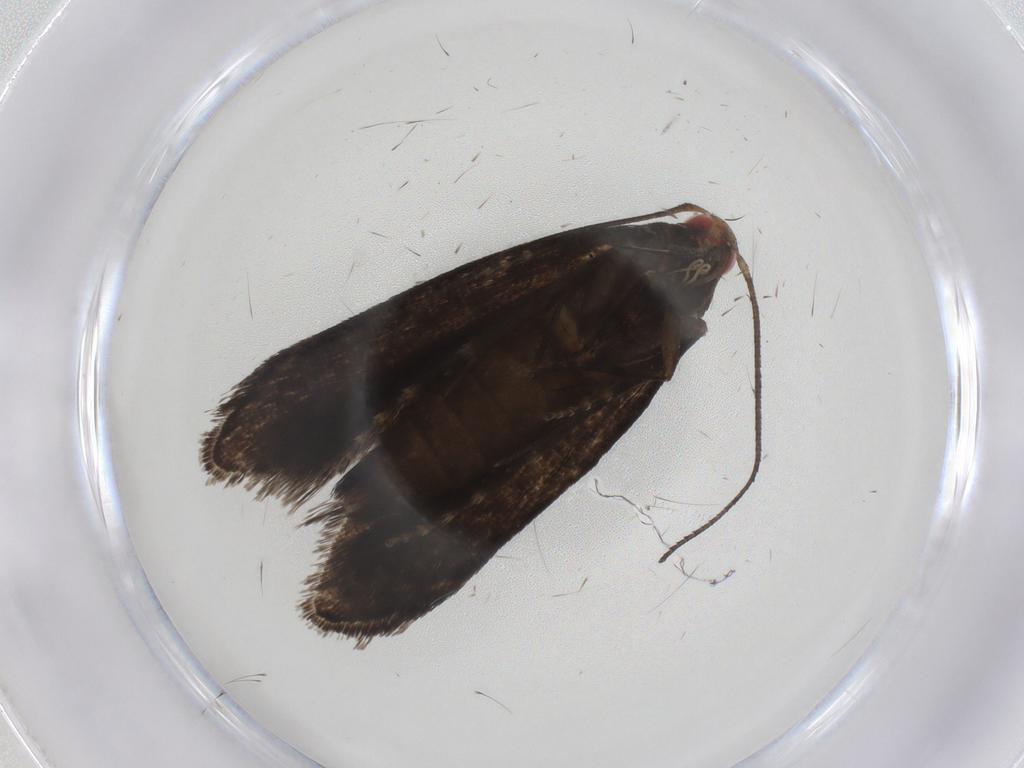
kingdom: Animalia
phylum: Arthropoda
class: Insecta
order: Lepidoptera
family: Gelechiidae
